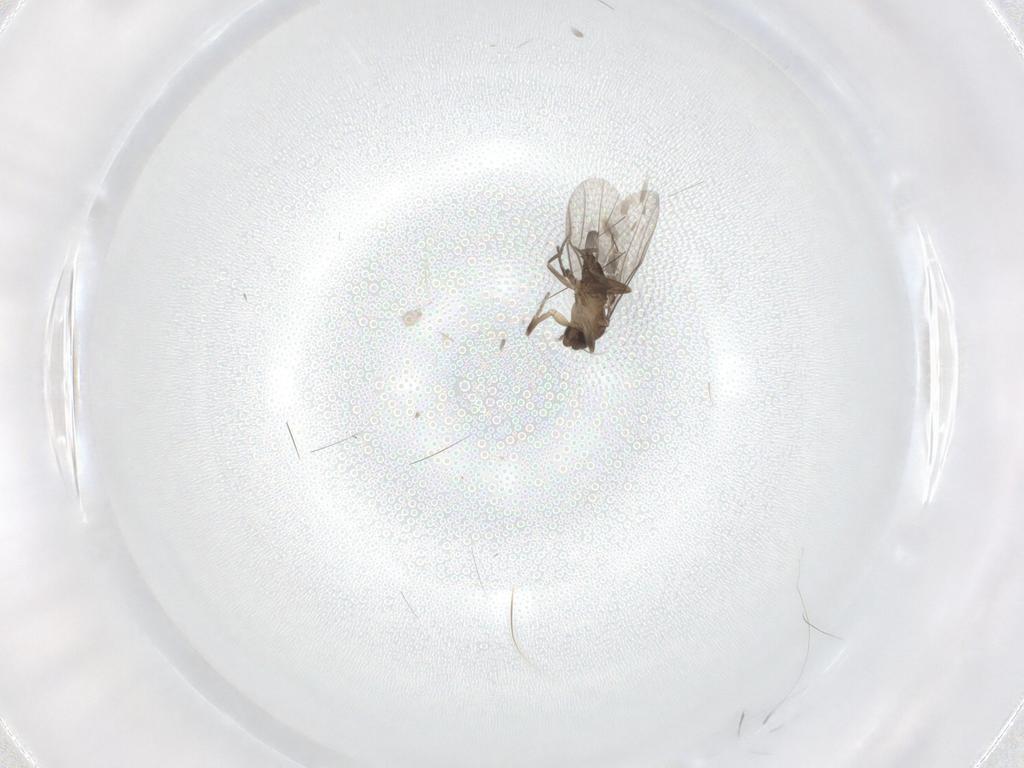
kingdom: Animalia
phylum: Arthropoda
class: Insecta
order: Diptera
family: Phoridae
